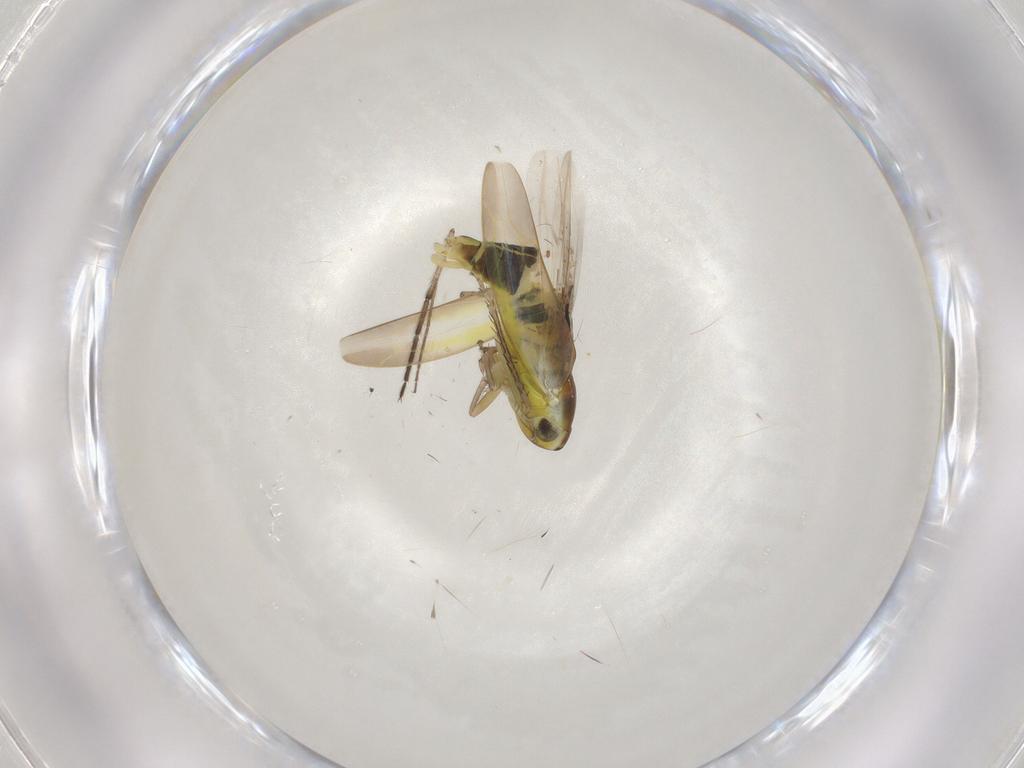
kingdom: Animalia
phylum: Arthropoda
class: Insecta
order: Hemiptera
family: Cicadellidae
